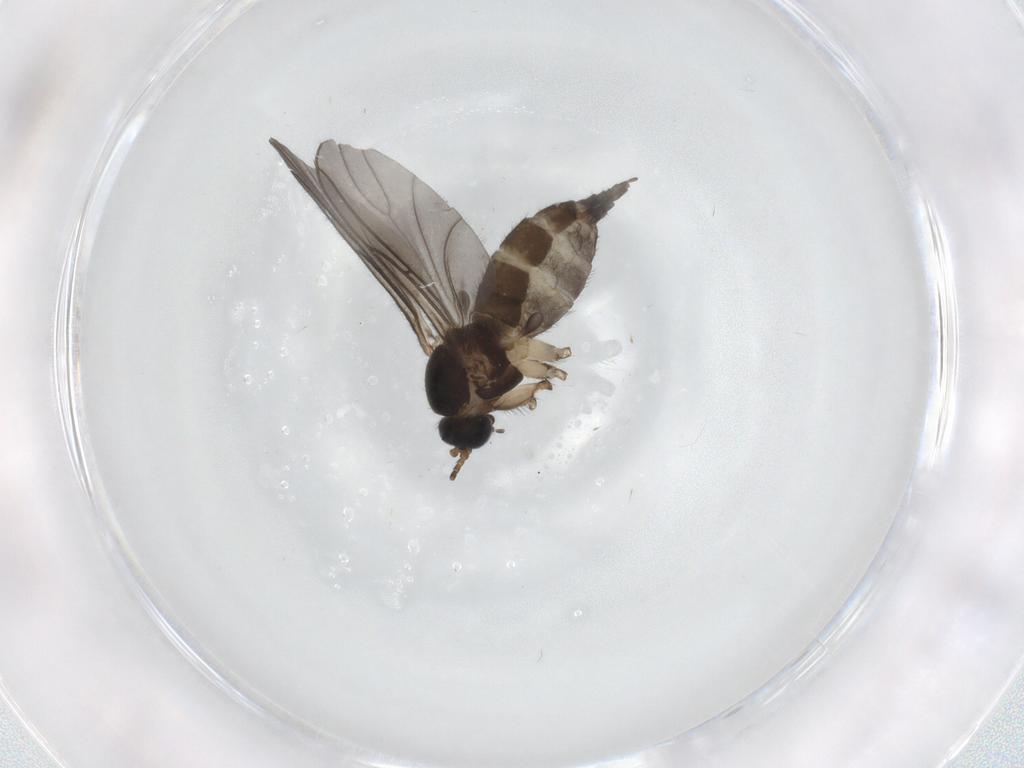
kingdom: Animalia
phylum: Arthropoda
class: Insecta
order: Diptera
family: Sciaridae
